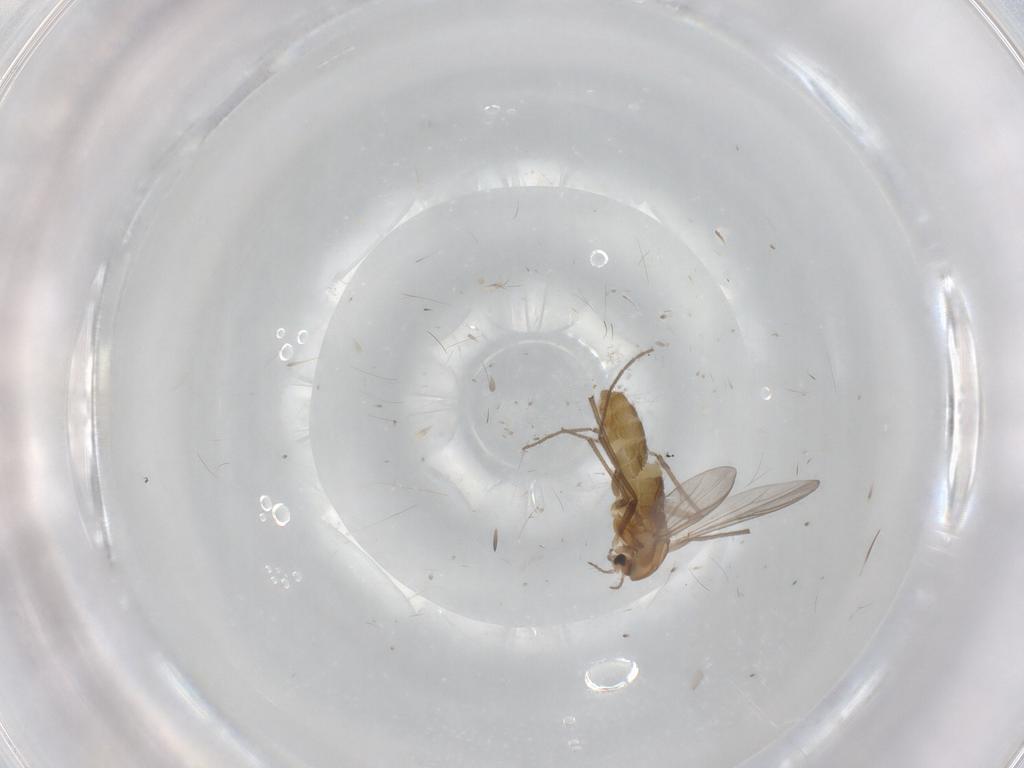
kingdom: Animalia
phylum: Arthropoda
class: Insecta
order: Diptera
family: Chironomidae
